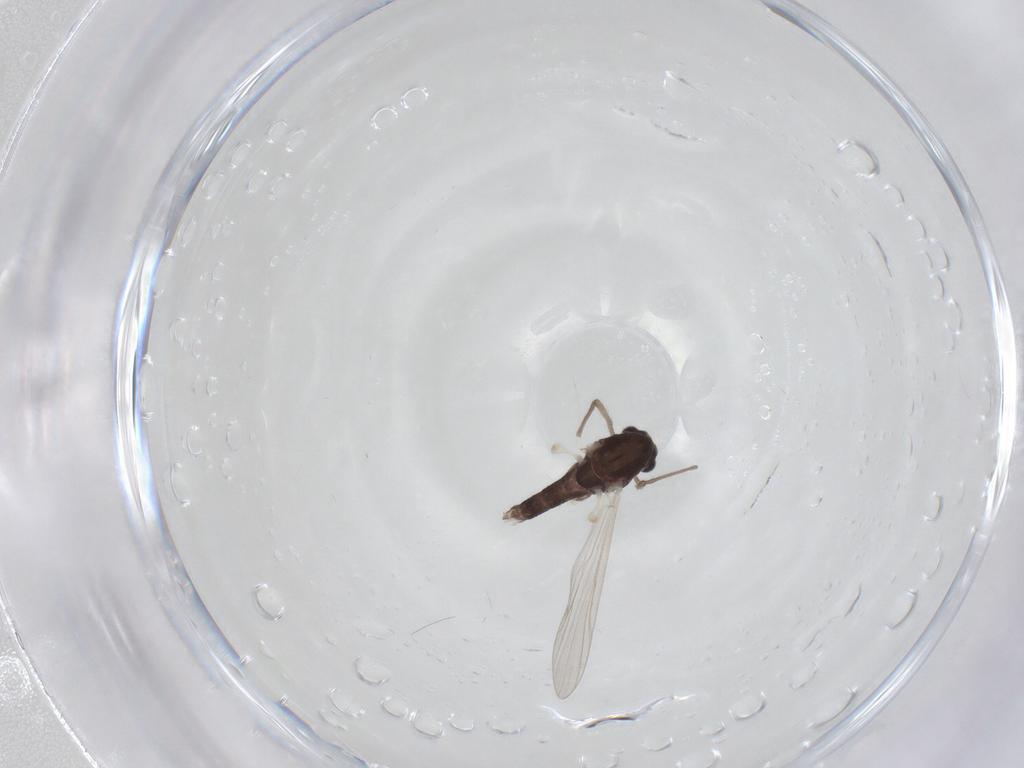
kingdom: Animalia
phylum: Arthropoda
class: Insecta
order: Diptera
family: Chironomidae
